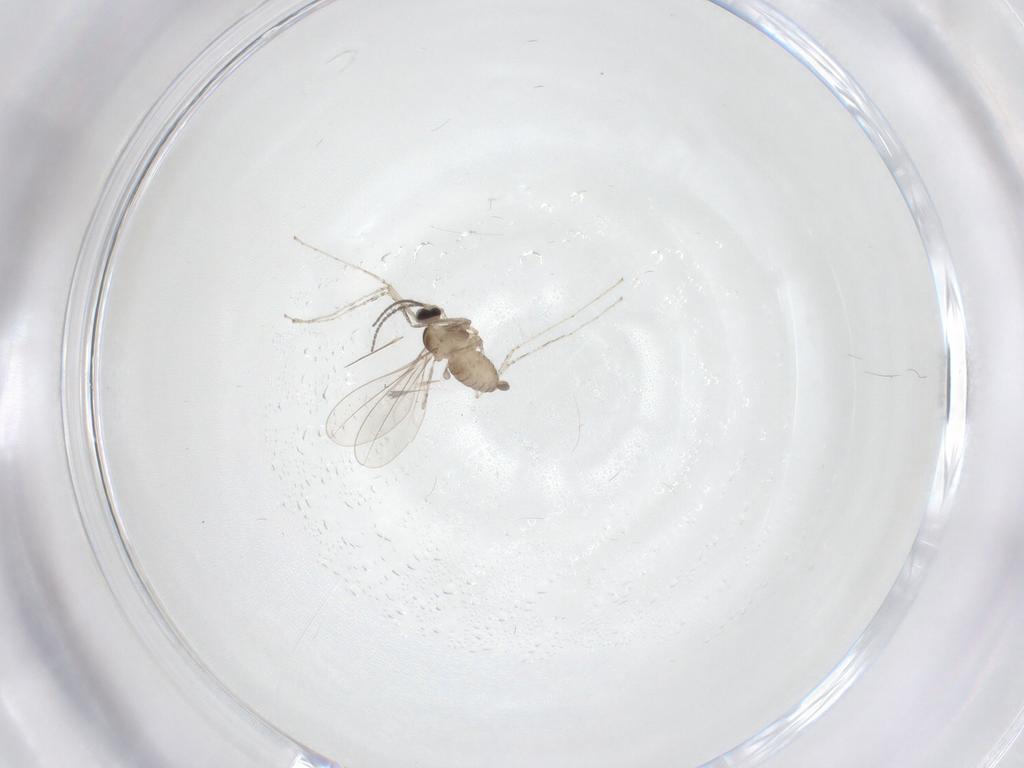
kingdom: Animalia
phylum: Arthropoda
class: Insecta
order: Diptera
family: Cecidomyiidae
